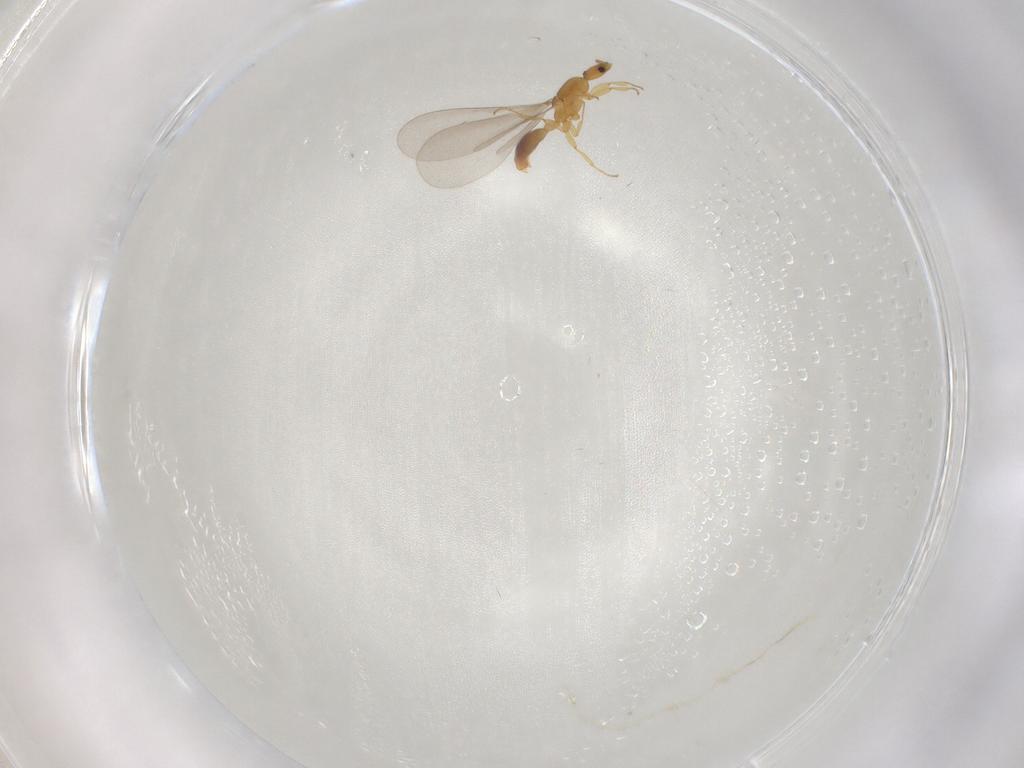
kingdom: Animalia
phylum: Arthropoda
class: Insecta
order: Hymenoptera
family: Formicidae
